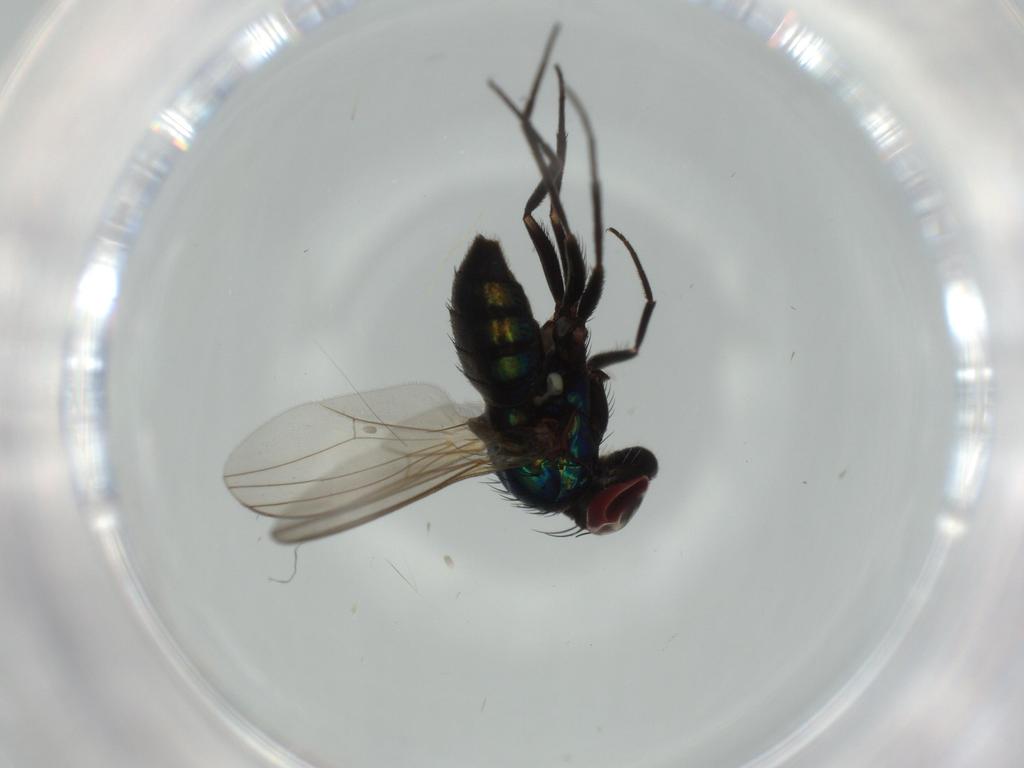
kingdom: Animalia
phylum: Arthropoda
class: Insecta
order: Diptera
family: Dolichopodidae
